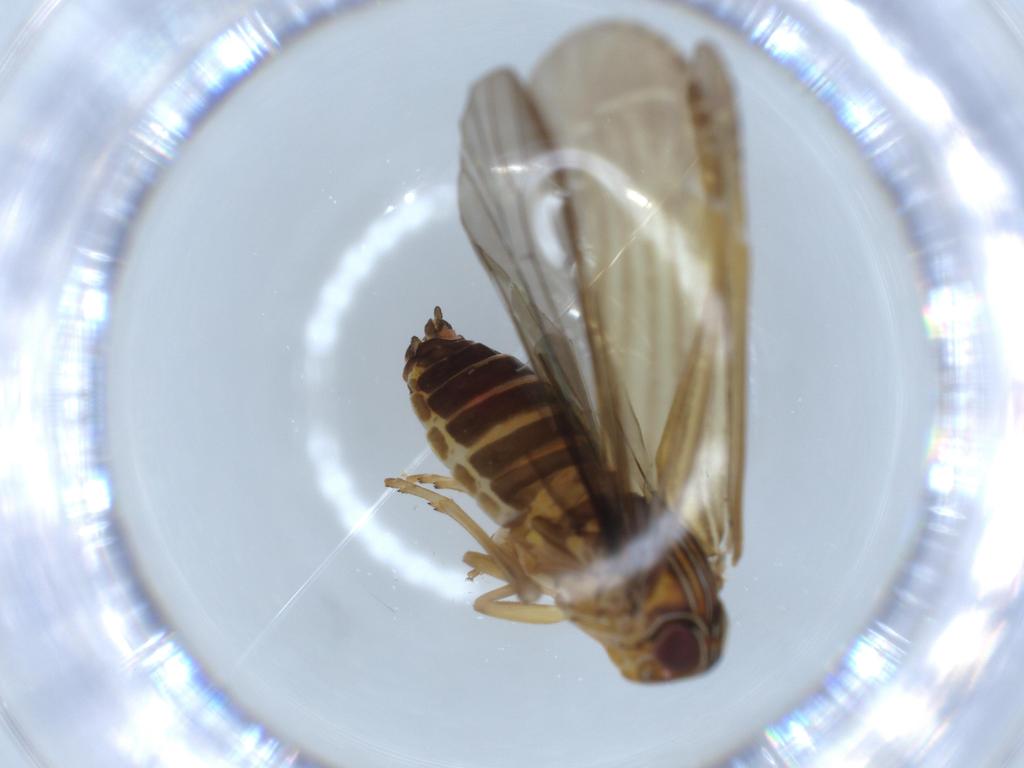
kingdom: Animalia
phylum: Arthropoda
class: Insecta
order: Hemiptera
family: Achilidae
